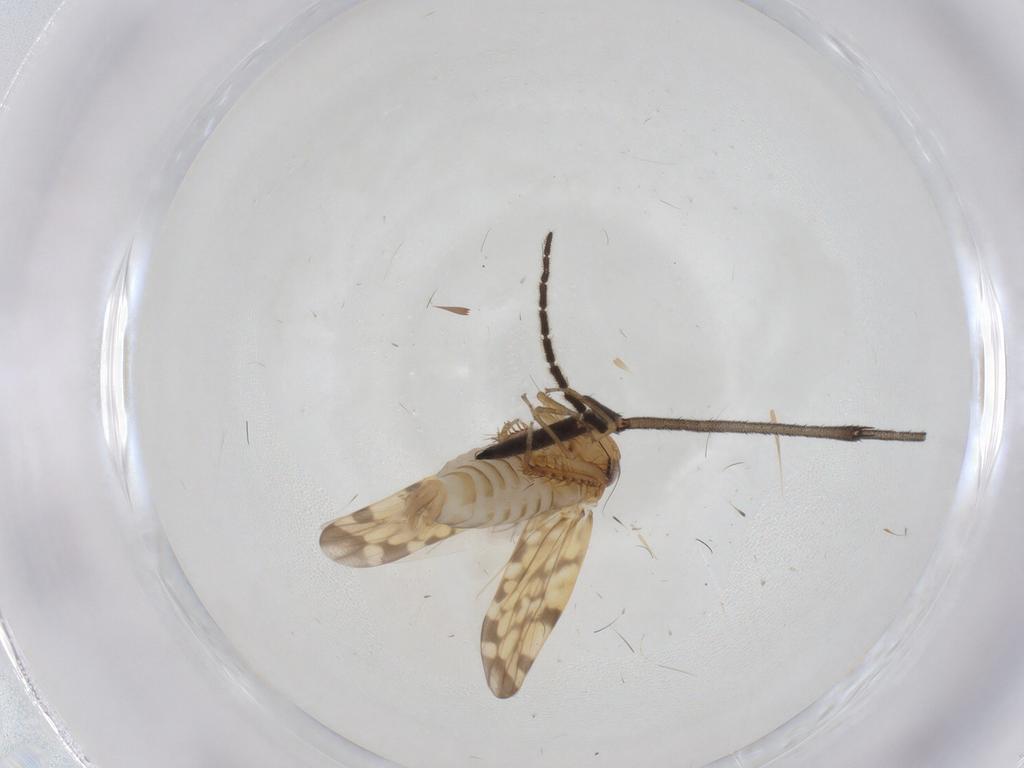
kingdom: Animalia
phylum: Arthropoda
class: Insecta
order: Hemiptera
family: Cicadellidae
